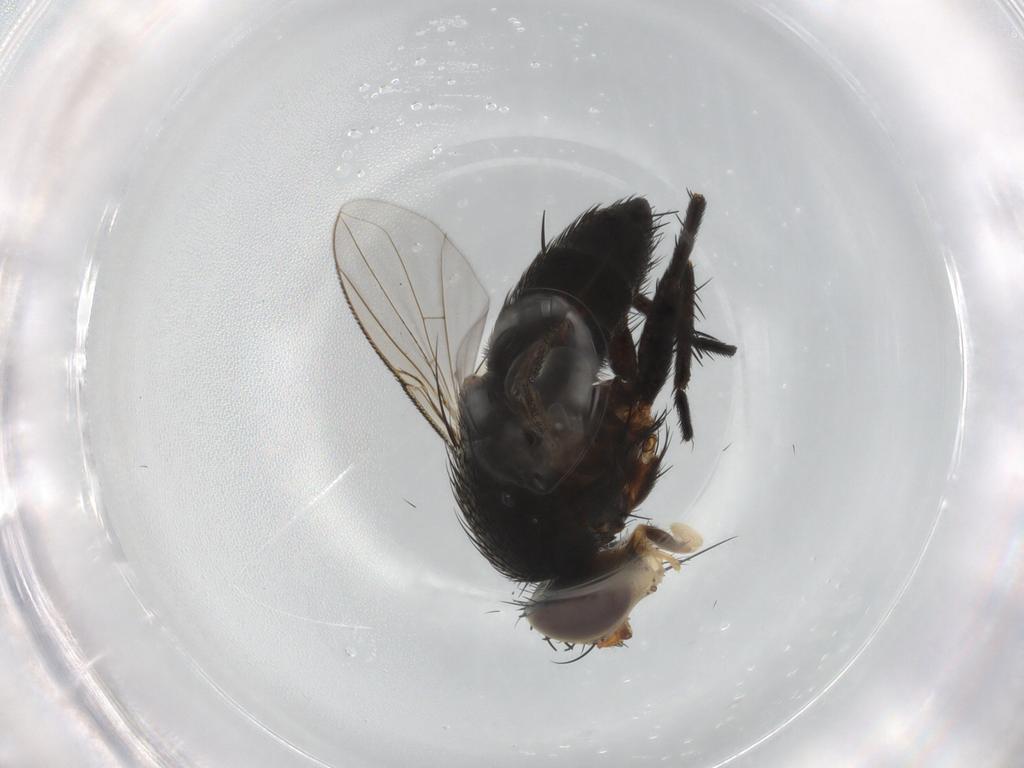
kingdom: Animalia
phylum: Arthropoda
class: Insecta
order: Diptera
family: Tachinidae
